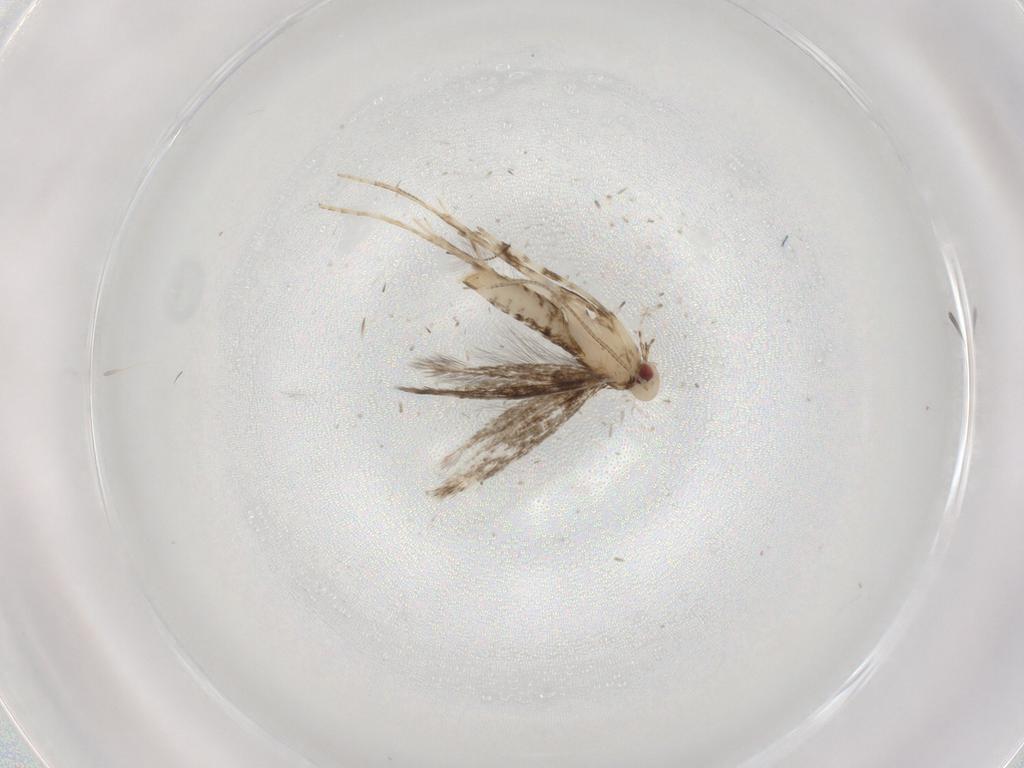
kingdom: Animalia
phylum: Arthropoda
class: Insecta
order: Lepidoptera
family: Gracillariidae
